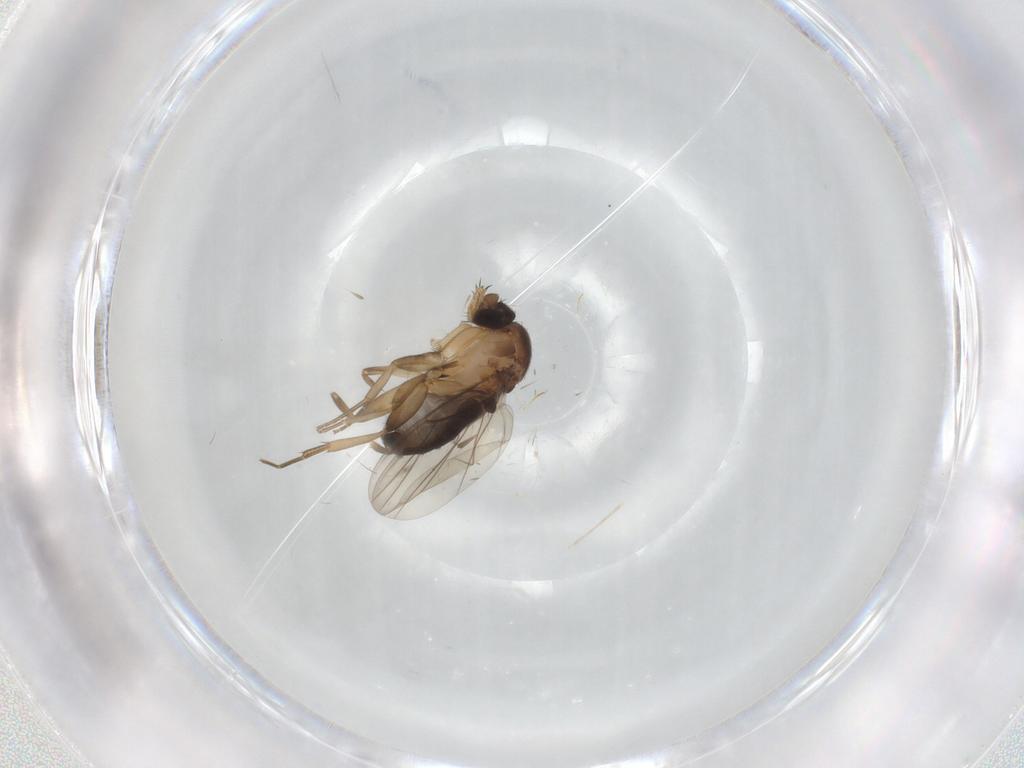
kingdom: Animalia
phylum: Arthropoda
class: Insecta
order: Diptera
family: Cecidomyiidae
